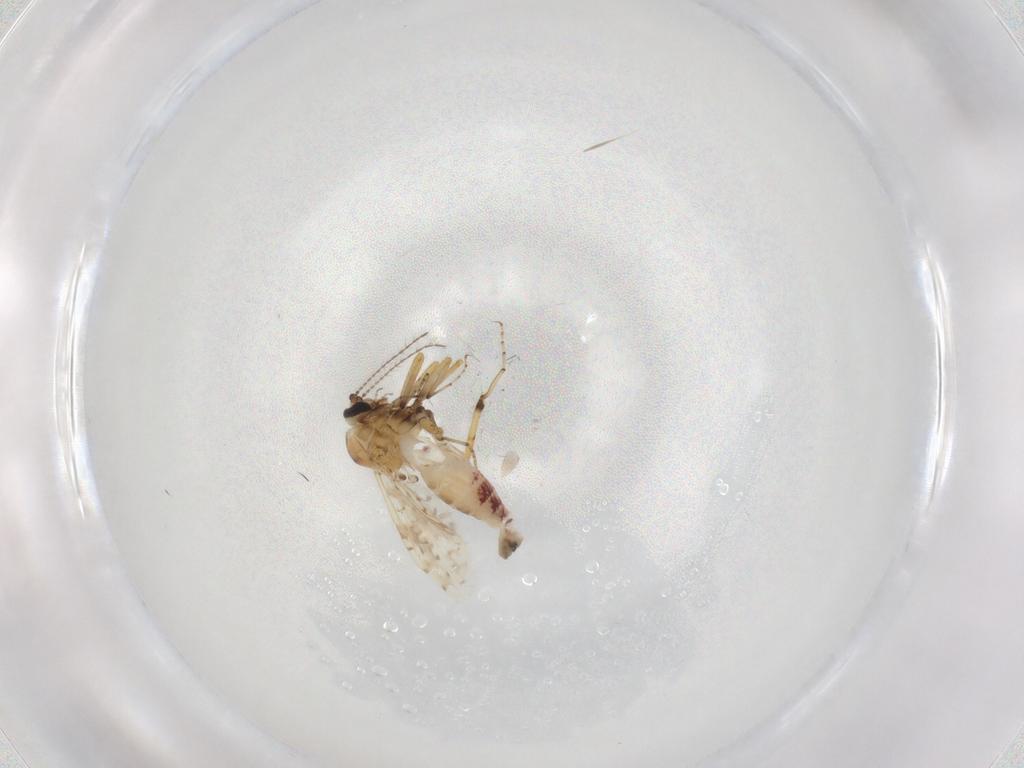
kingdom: Animalia
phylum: Arthropoda
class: Insecta
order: Diptera
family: Ceratopogonidae
